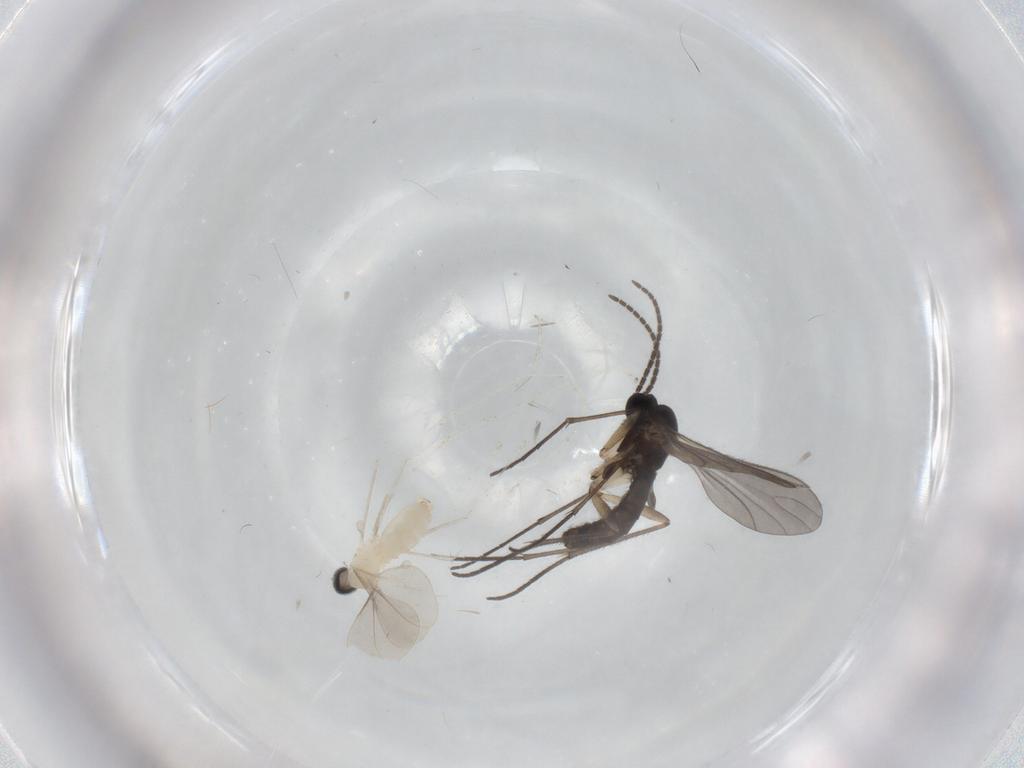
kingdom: Animalia
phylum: Arthropoda
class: Insecta
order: Diptera
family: Sciaridae
